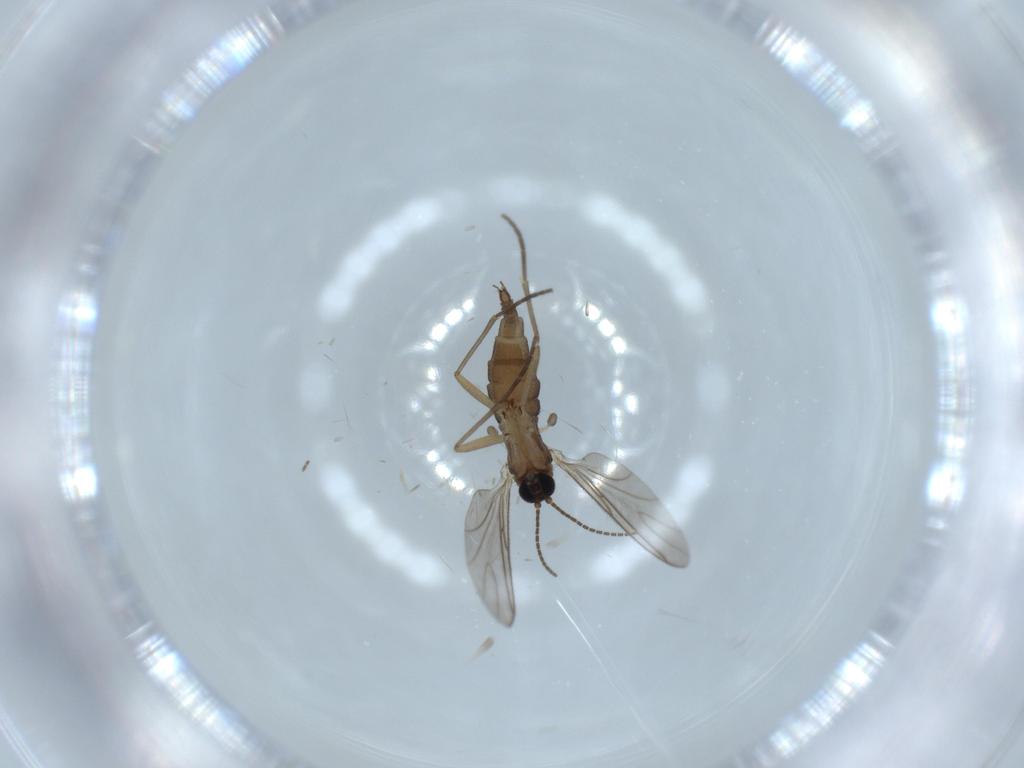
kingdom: Animalia
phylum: Arthropoda
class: Insecta
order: Diptera
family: Sciaridae
